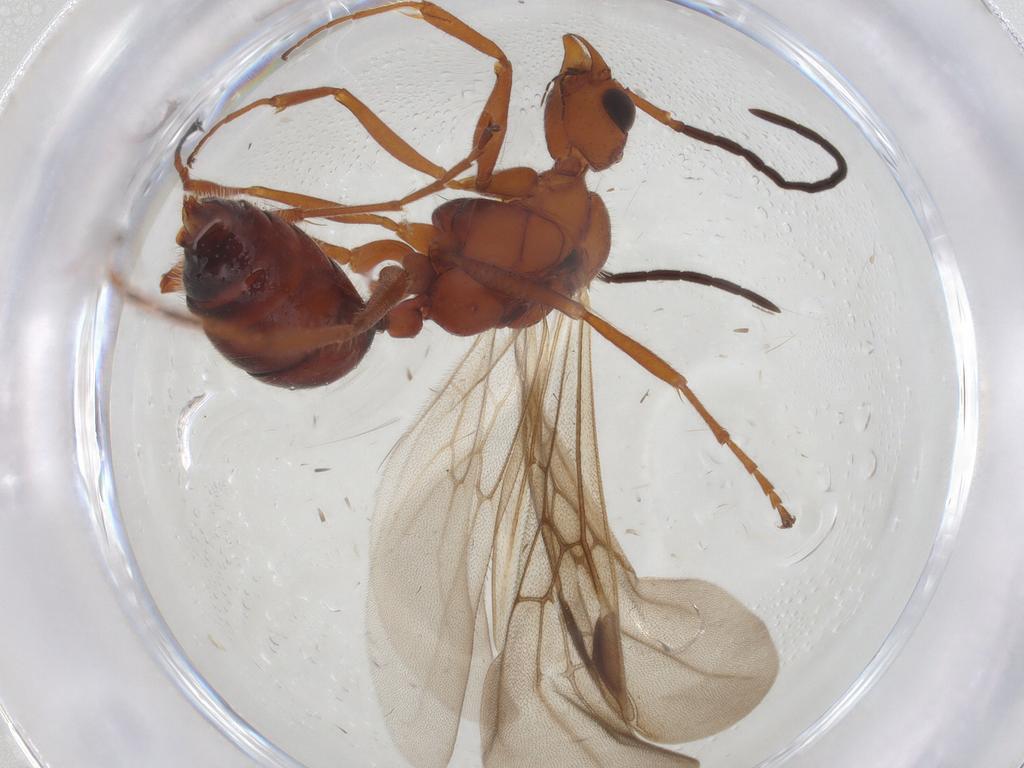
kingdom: Animalia
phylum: Arthropoda
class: Insecta
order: Hymenoptera
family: Formicidae
